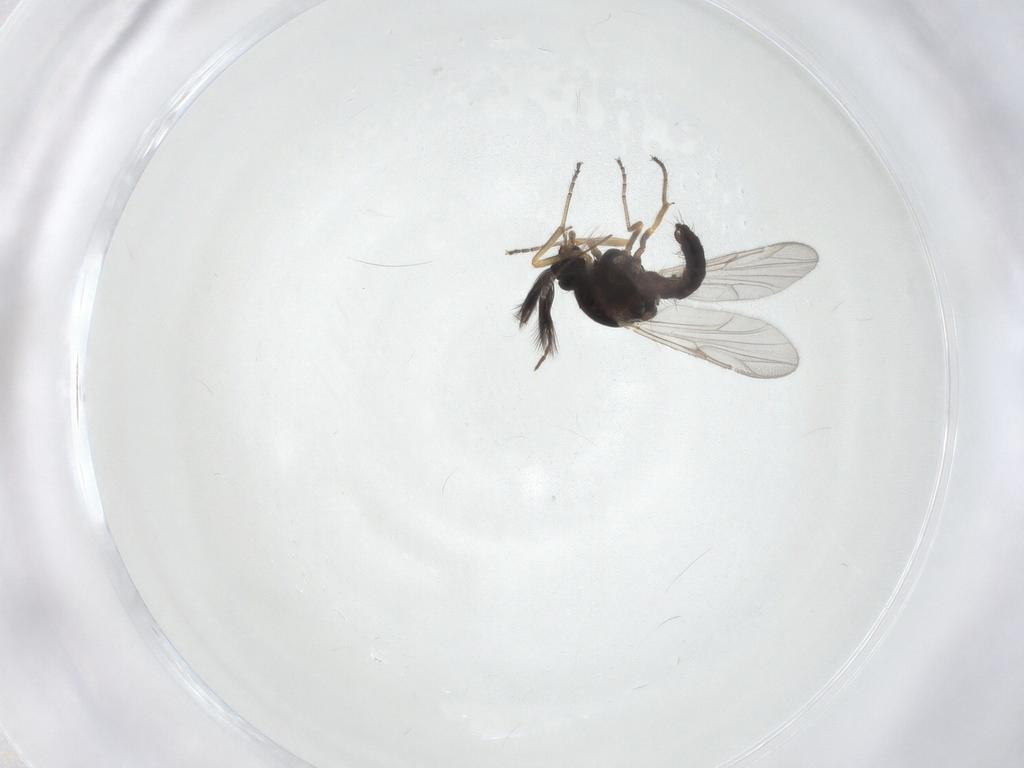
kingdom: Animalia
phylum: Arthropoda
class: Insecta
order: Diptera
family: Ceratopogonidae
